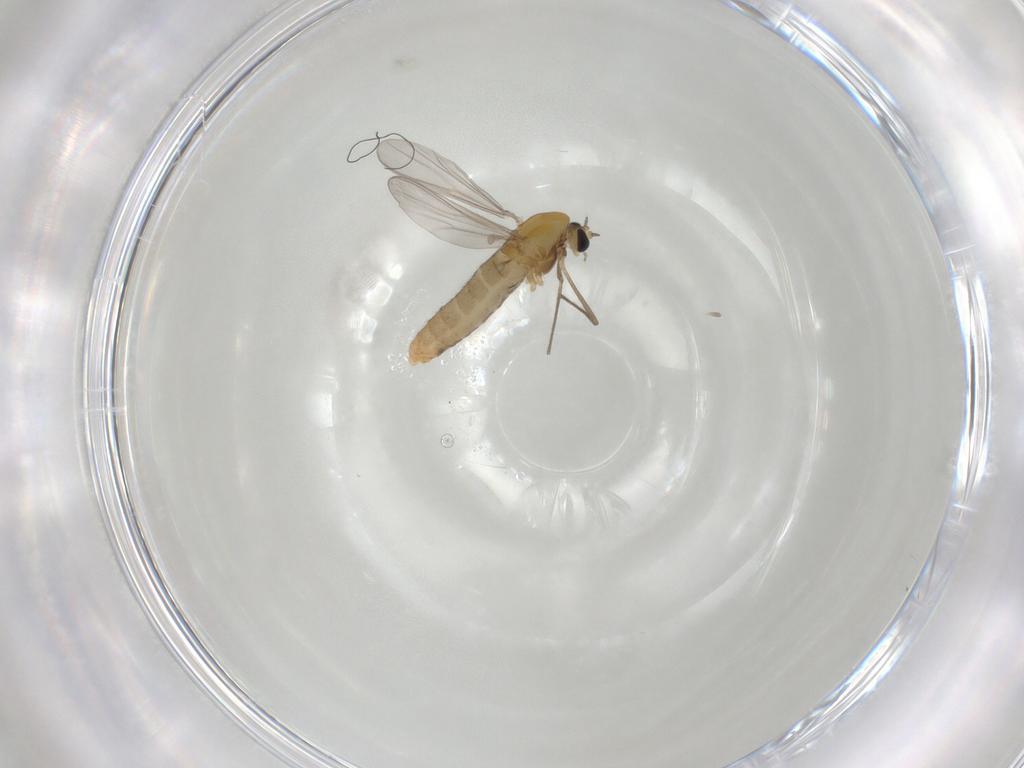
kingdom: Animalia
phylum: Arthropoda
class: Insecta
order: Diptera
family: Chironomidae
